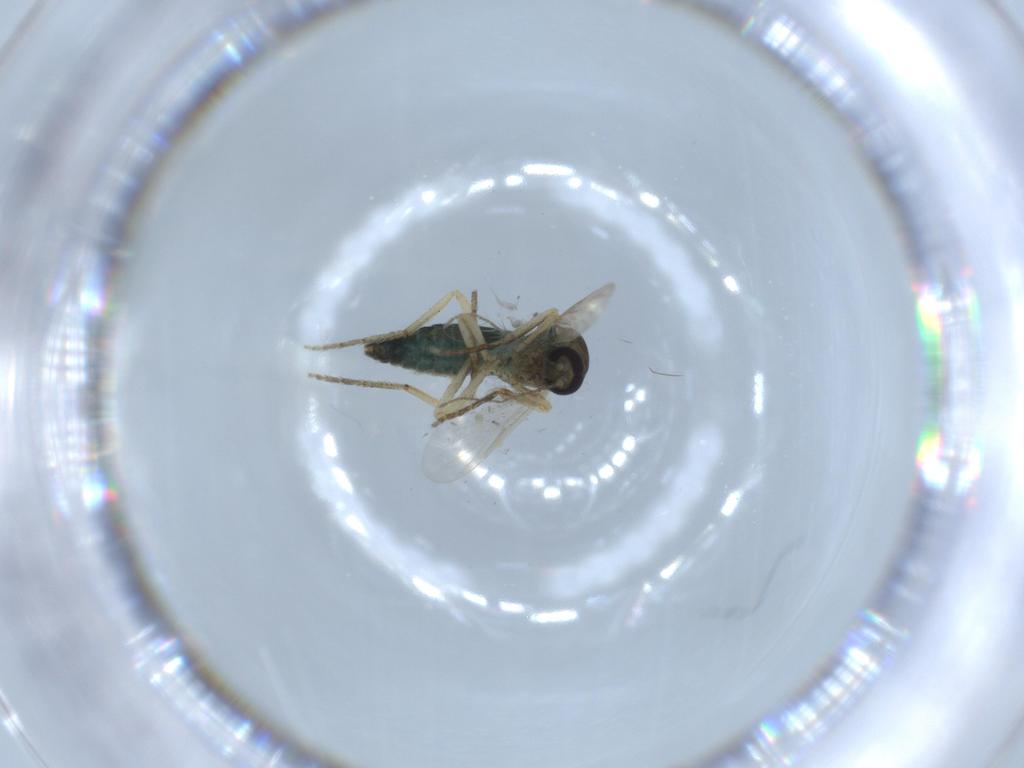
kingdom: Animalia
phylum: Arthropoda
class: Insecta
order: Diptera
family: Ceratopogonidae
